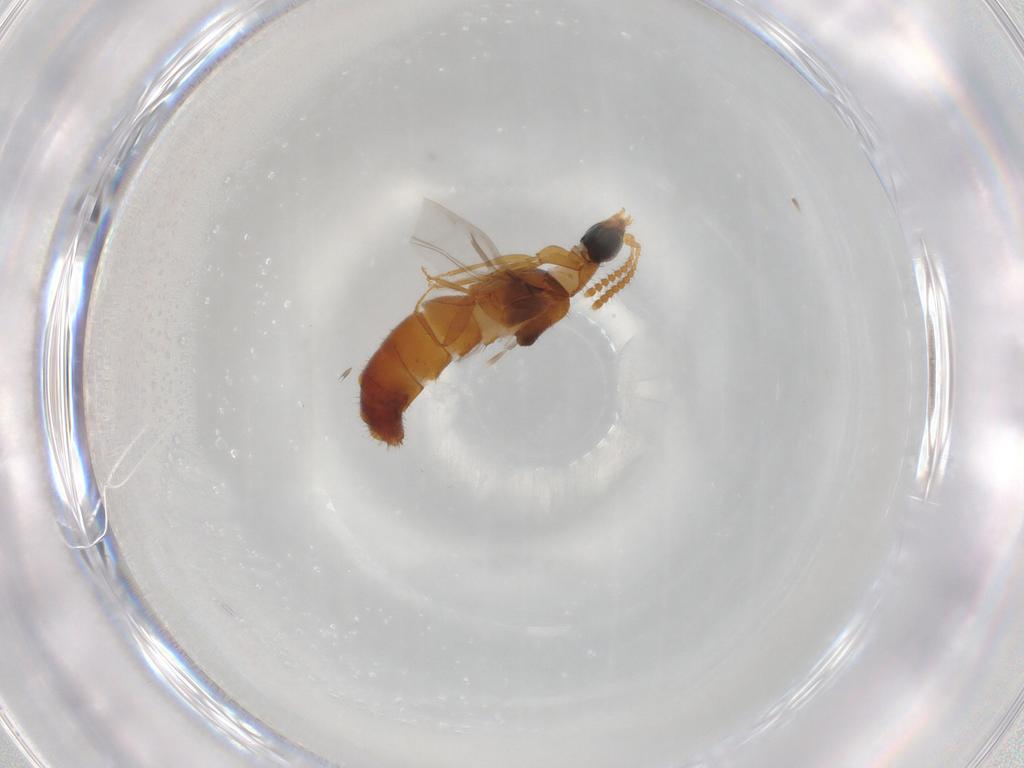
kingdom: Animalia
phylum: Arthropoda
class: Insecta
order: Coleoptera
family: Staphylinidae
